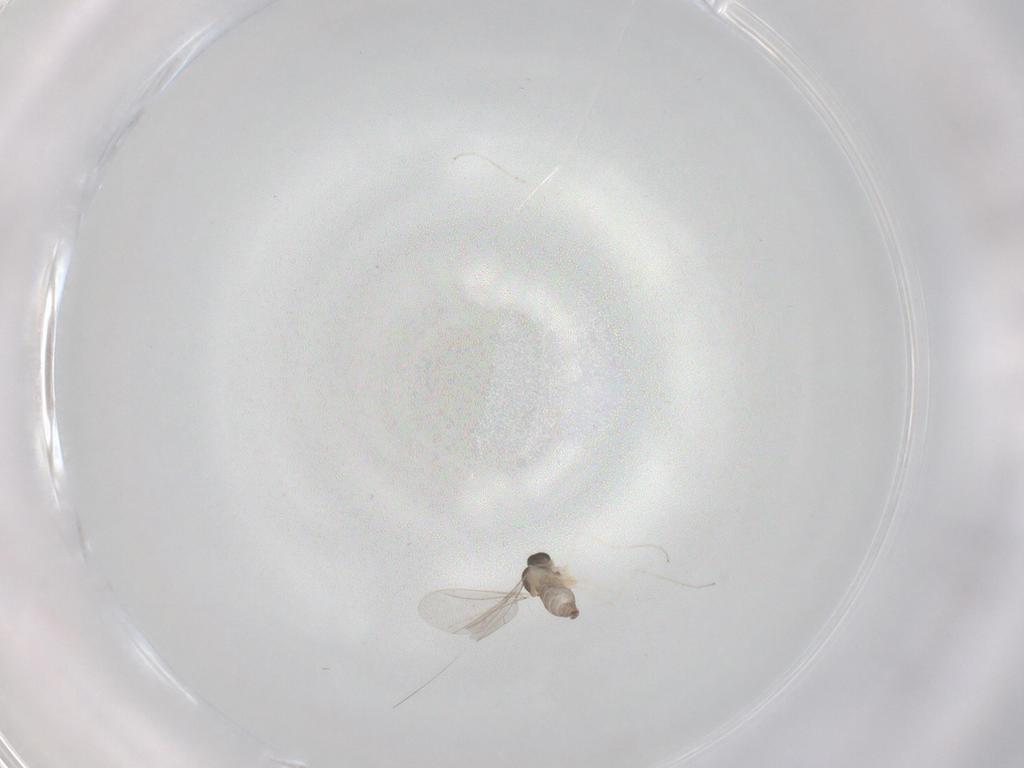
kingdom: Animalia
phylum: Arthropoda
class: Insecta
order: Diptera
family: Cecidomyiidae
